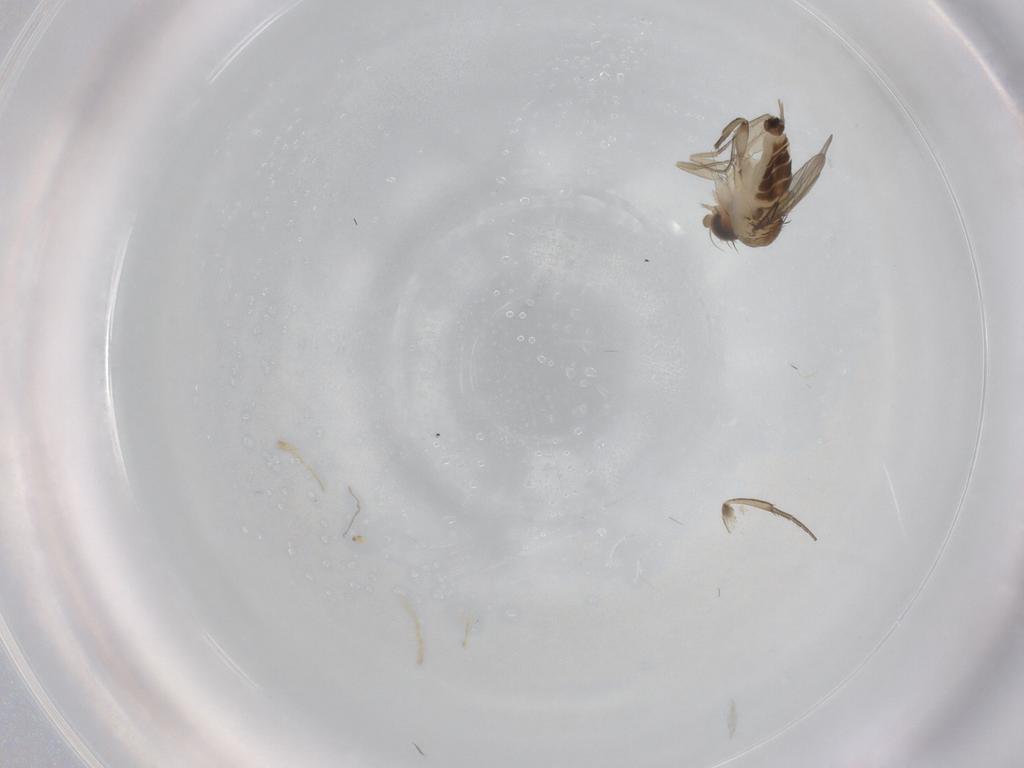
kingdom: Animalia
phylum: Arthropoda
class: Insecta
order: Diptera
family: Phoridae
